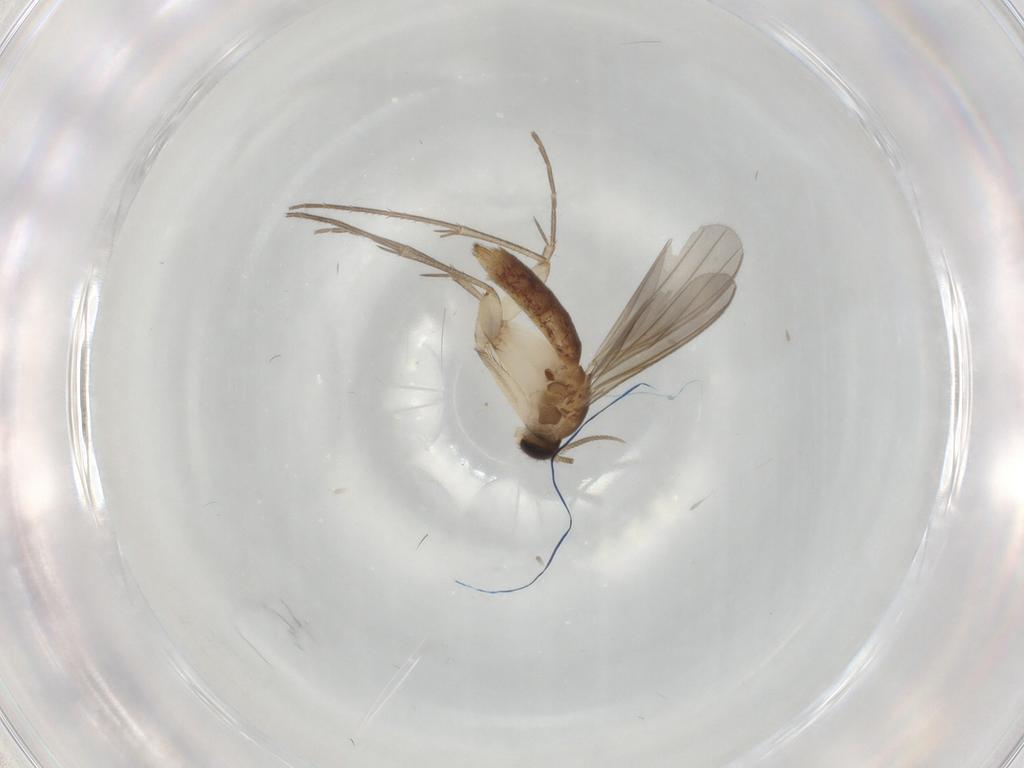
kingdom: Animalia
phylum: Arthropoda
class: Insecta
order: Diptera
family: Mycetophilidae
